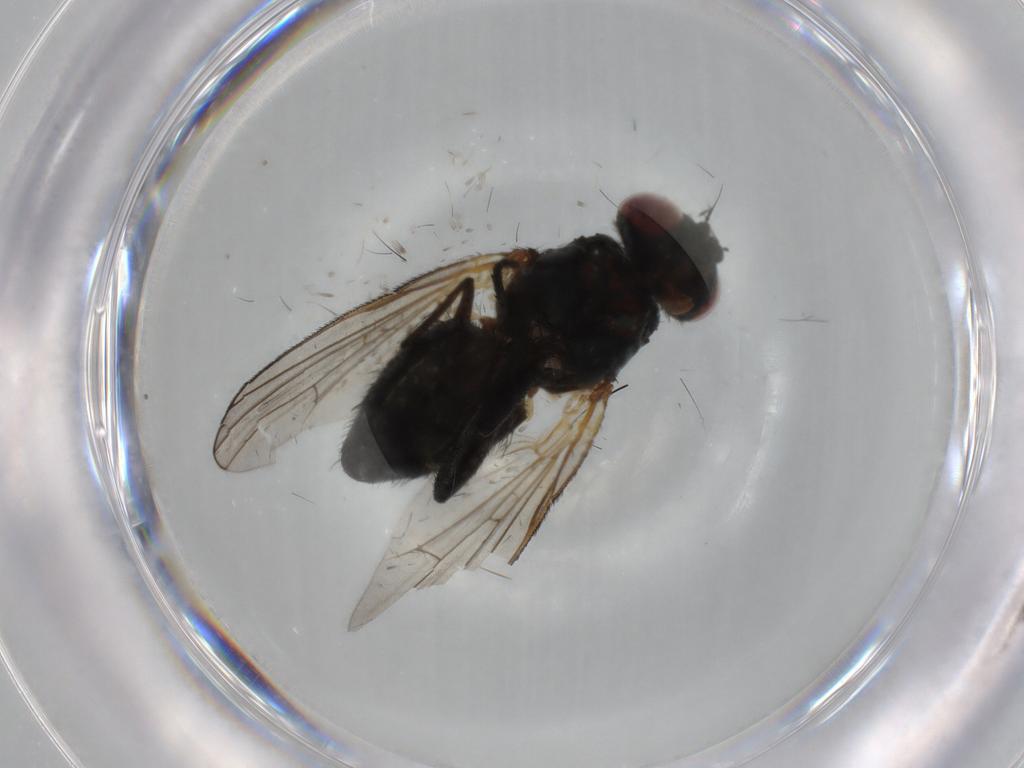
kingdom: Animalia
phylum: Arthropoda
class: Insecta
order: Diptera
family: Fannia
